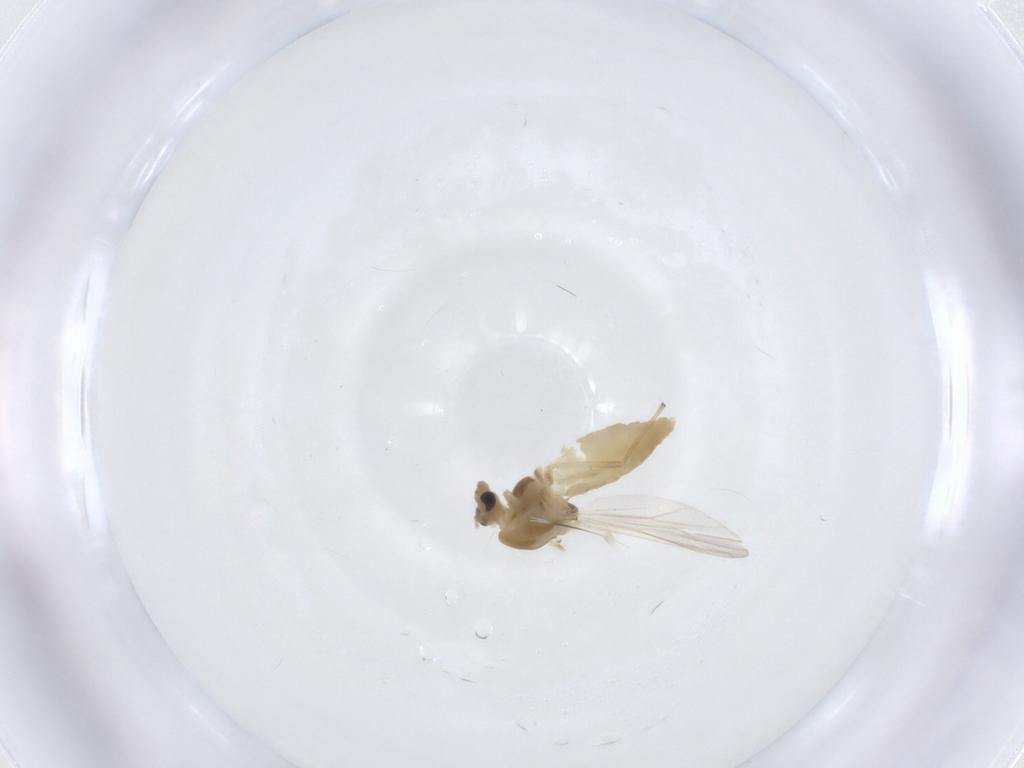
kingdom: Animalia
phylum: Arthropoda
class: Insecta
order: Diptera
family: Chironomidae
